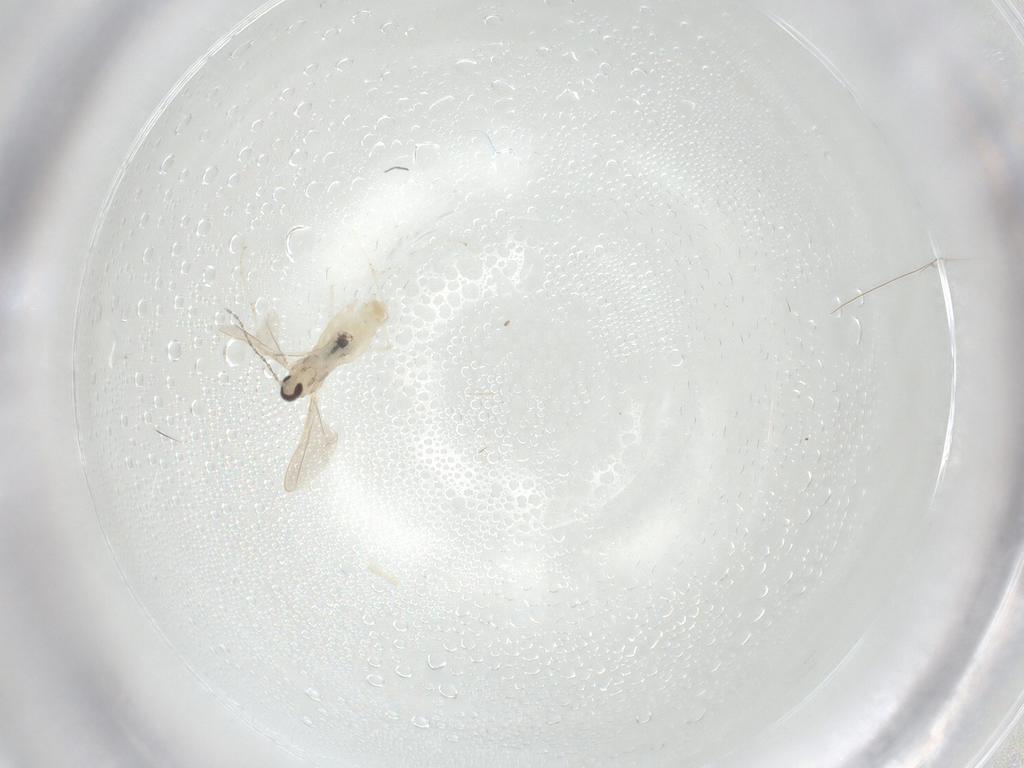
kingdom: Animalia
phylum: Arthropoda
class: Insecta
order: Diptera
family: Cecidomyiidae
